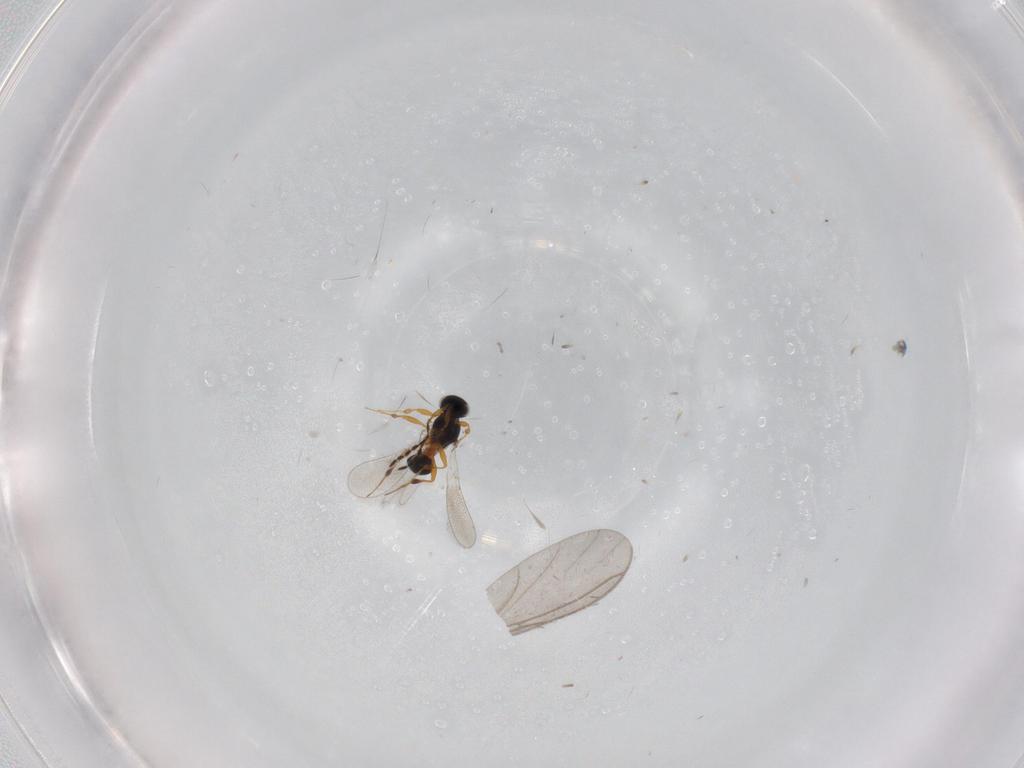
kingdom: Animalia
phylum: Arthropoda
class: Insecta
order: Hymenoptera
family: Platygastridae
